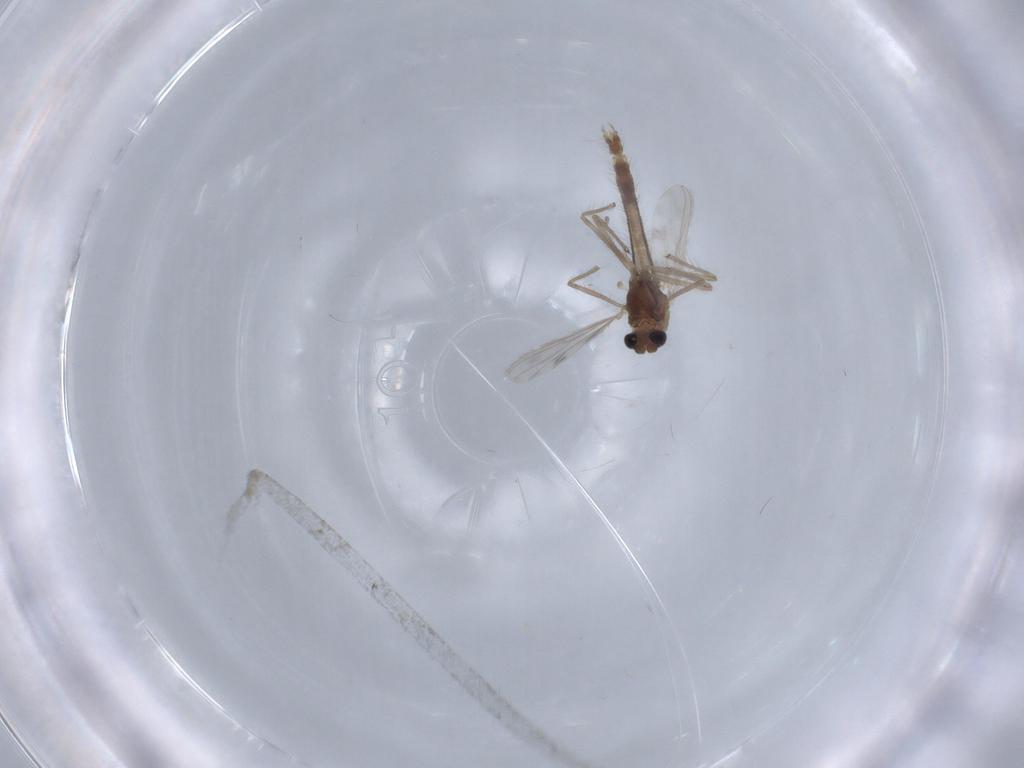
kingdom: Animalia
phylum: Arthropoda
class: Insecta
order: Diptera
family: Chironomidae
